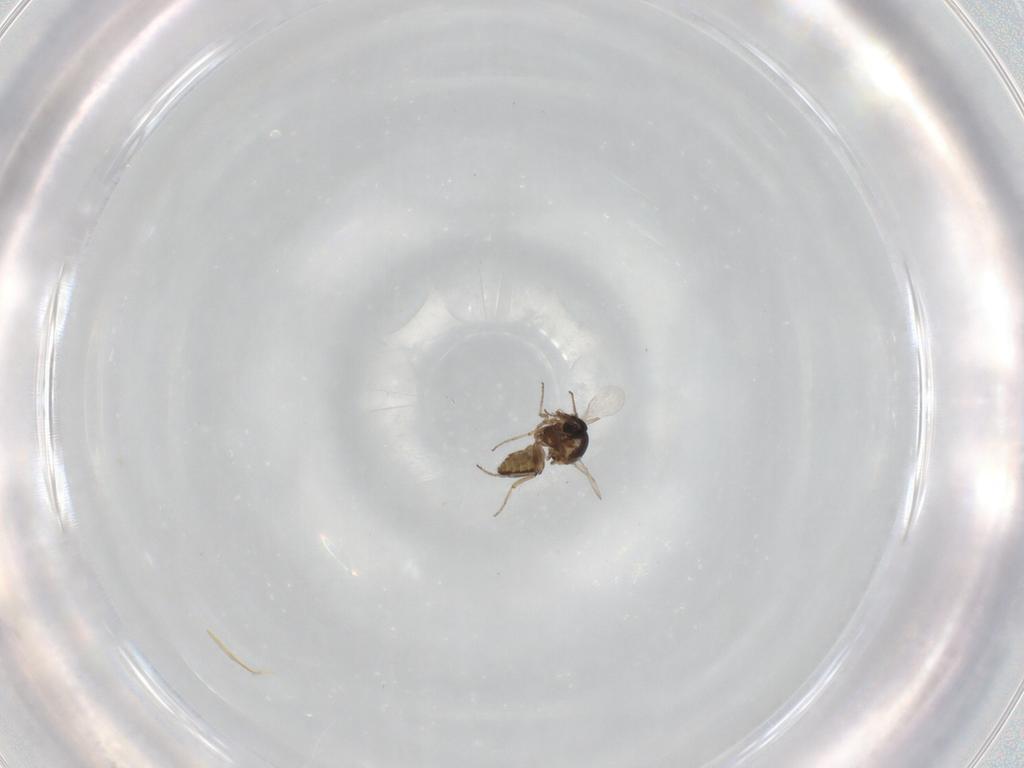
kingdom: Animalia
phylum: Arthropoda
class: Insecta
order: Diptera
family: Ceratopogonidae
